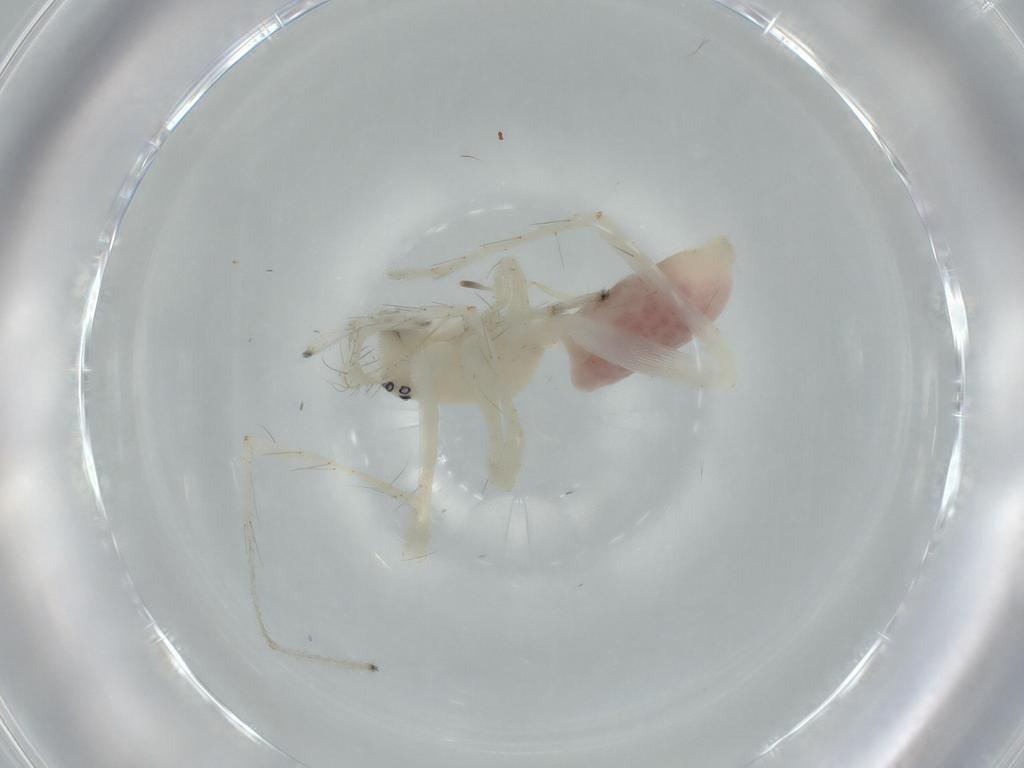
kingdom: Animalia
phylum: Arthropoda
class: Arachnida
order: Araneae
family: Anyphaenidae
